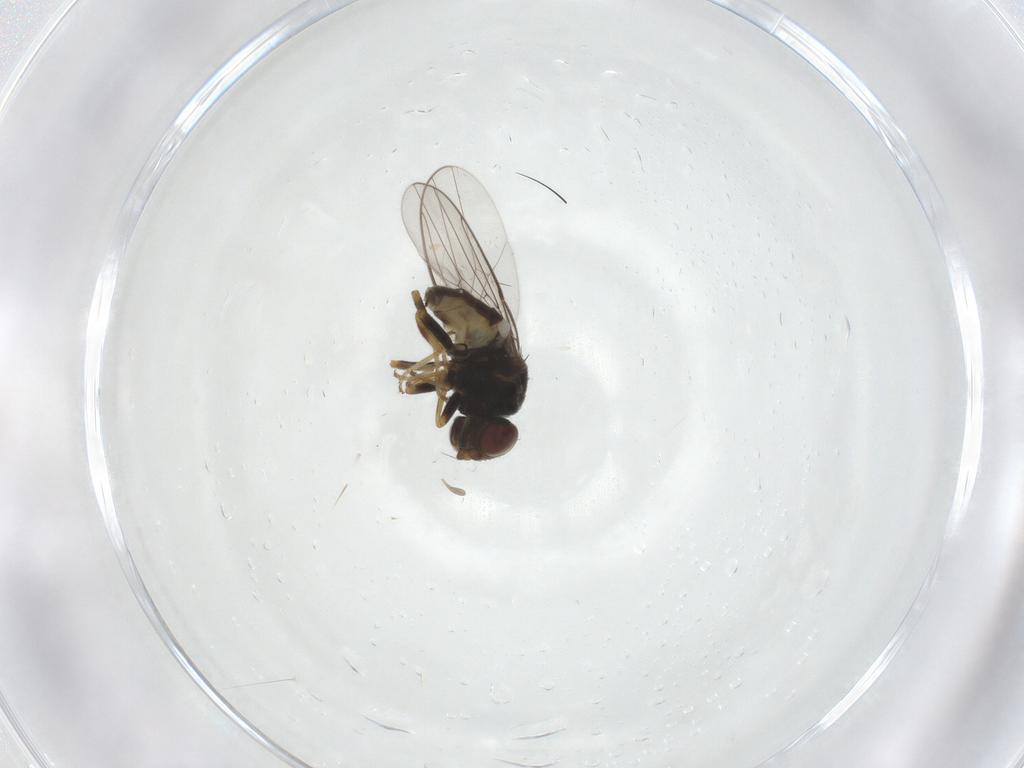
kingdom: Animalia
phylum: Arthropoda
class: Insecta
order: Diptera
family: Chloropidae
